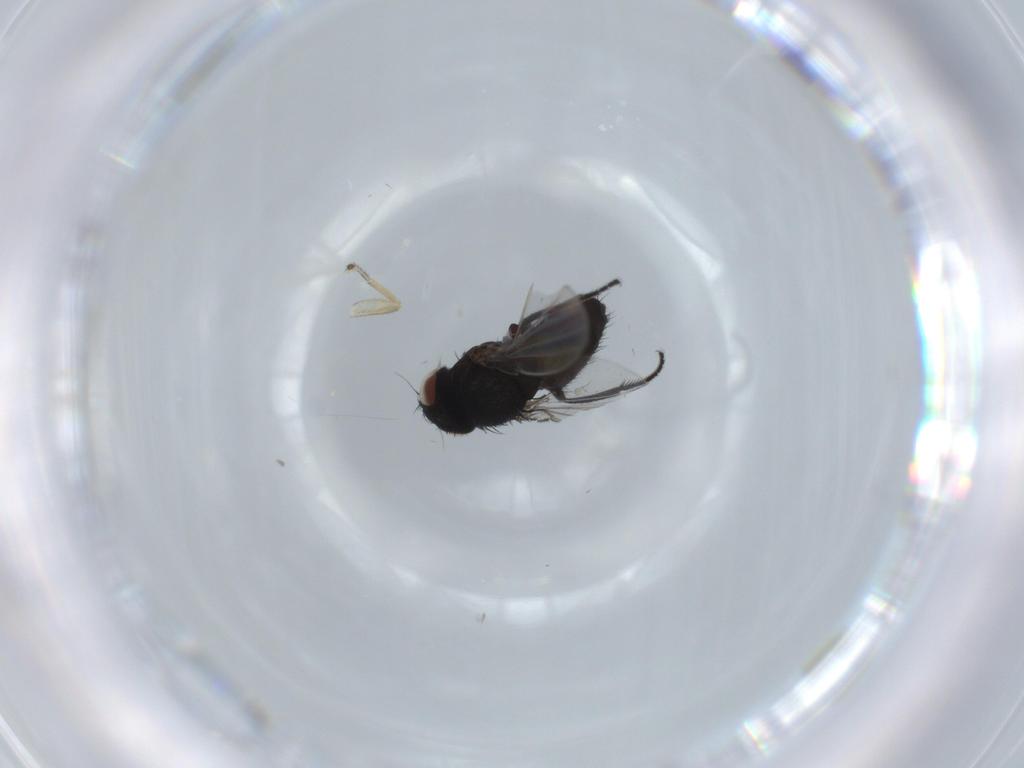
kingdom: Animalia
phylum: Arthropoda
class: Insecta
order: Diptera
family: Milichiidae
